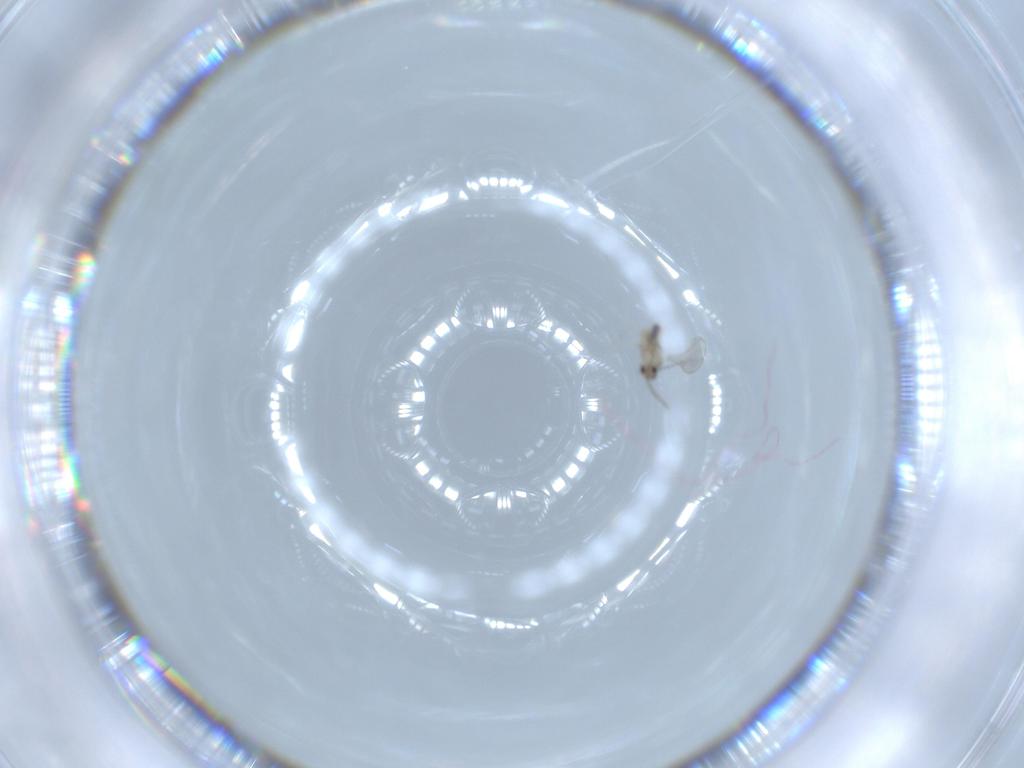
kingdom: Animalia
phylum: Arthropoda
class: Insecta
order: Diptera
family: Cecidomyiidae
